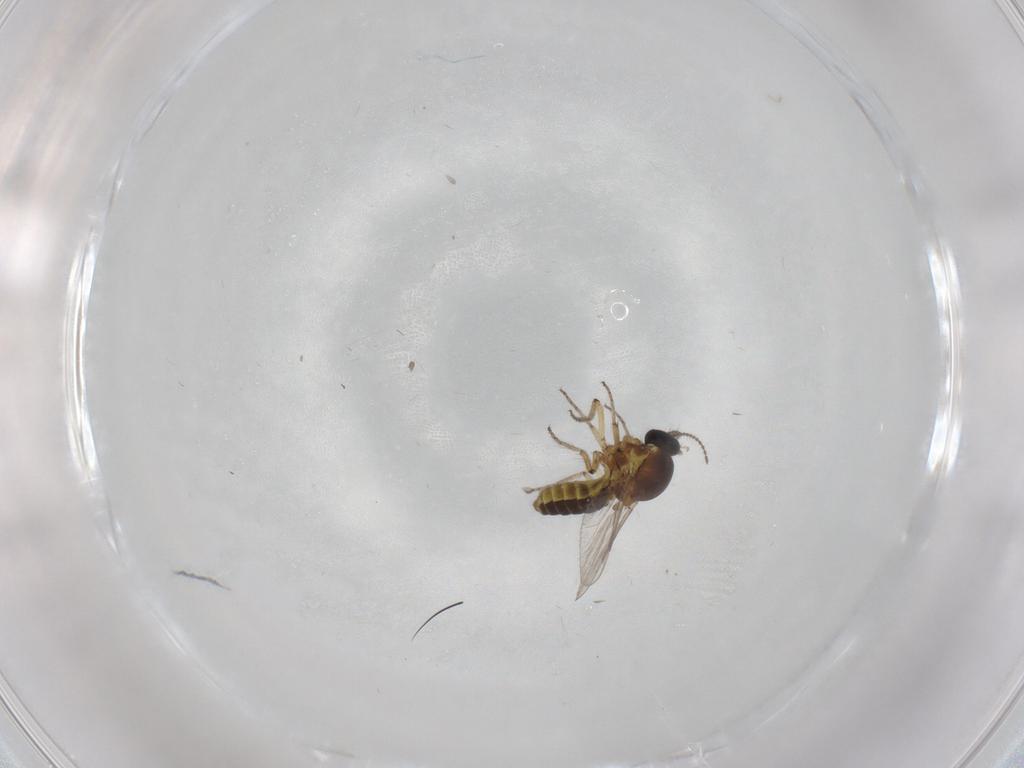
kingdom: Animalia
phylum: Arthropoda
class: Insecta
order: Diptera
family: Ceratopogonidae
